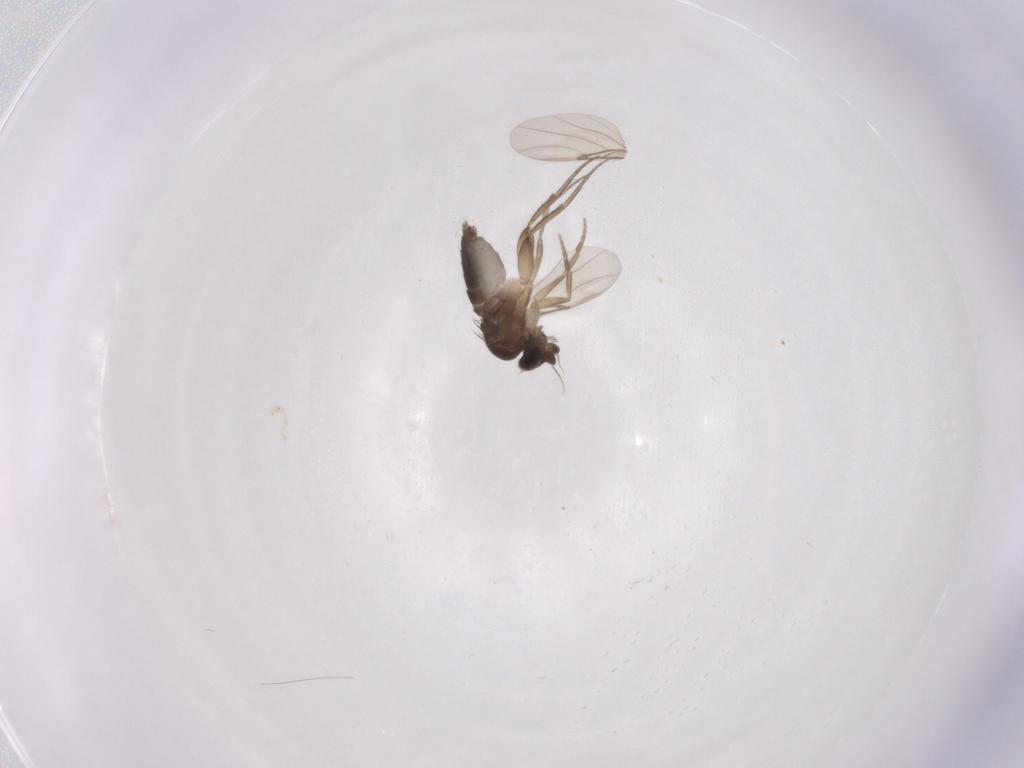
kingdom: Animalia
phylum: Arthropoda
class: Insecta
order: Diptera
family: Phoridae
